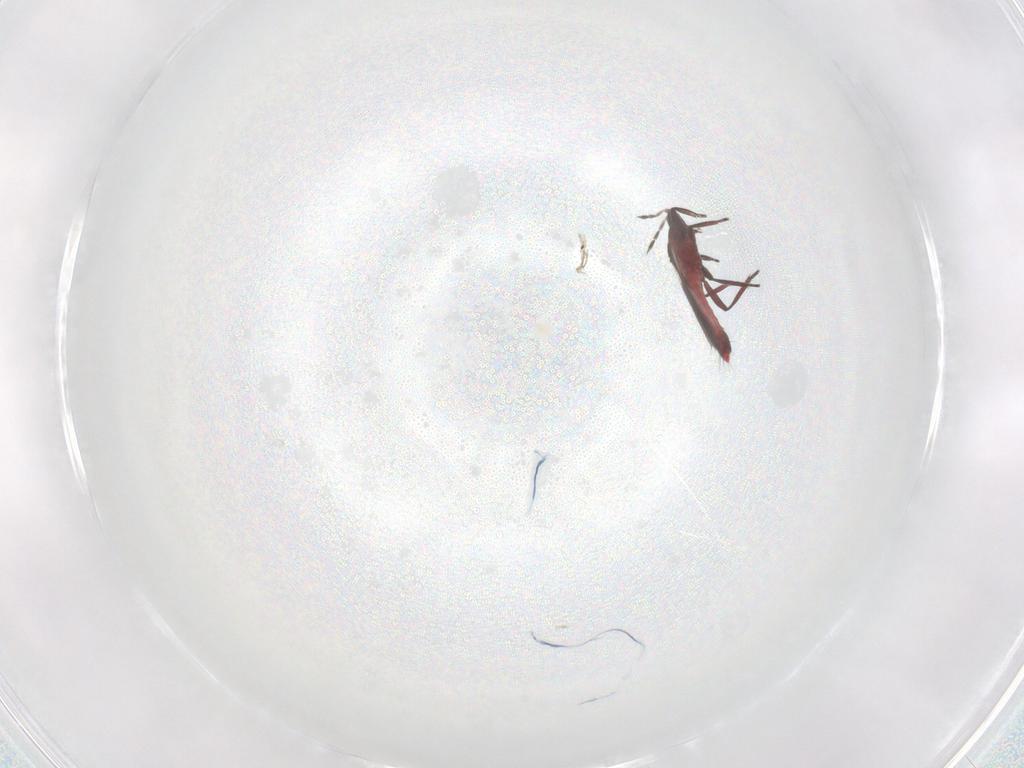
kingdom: Animalia
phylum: Arthropoda
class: Insecta
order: Thysanoptera
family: Aeolothripidae
